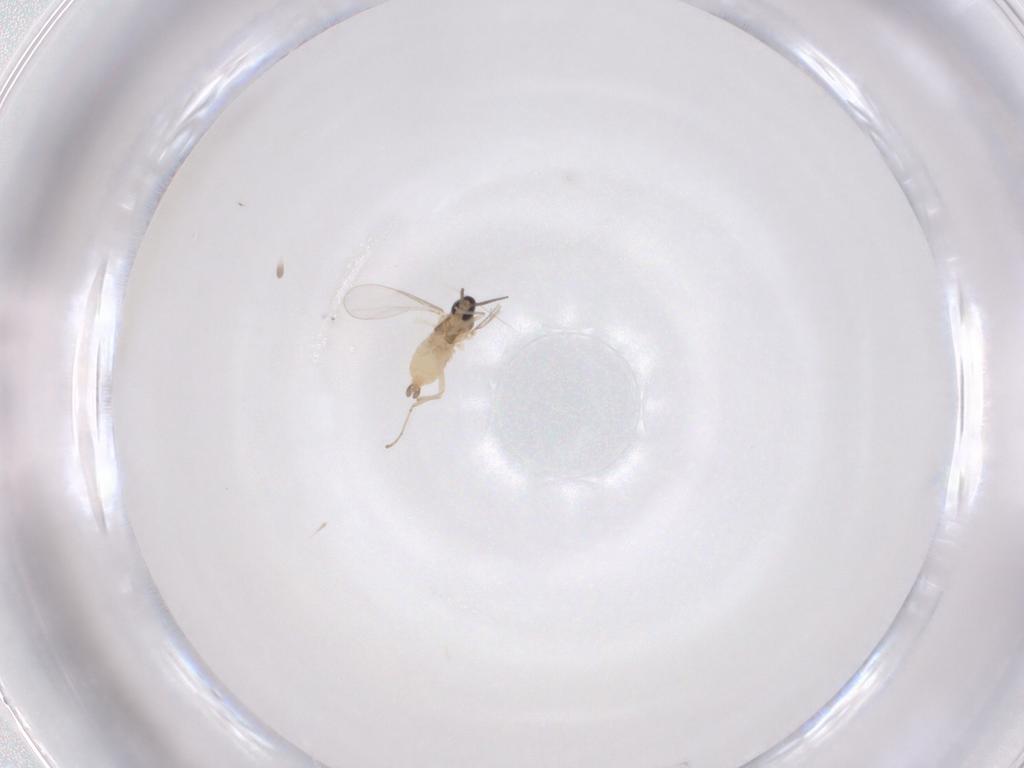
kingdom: Animalia
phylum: Arthropoda
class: Insecta
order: Diptera
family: Cecidomyiidae
